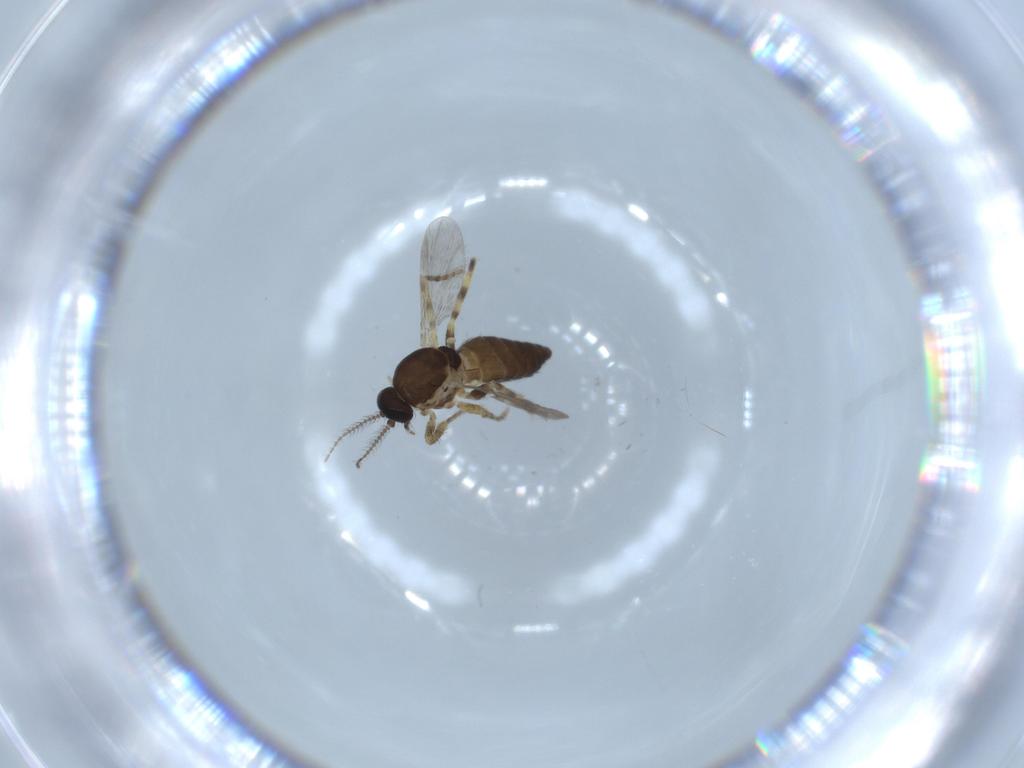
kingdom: Animalia
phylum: Arthropoda
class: Insecta
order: Diptera
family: Ceratopogonidae
